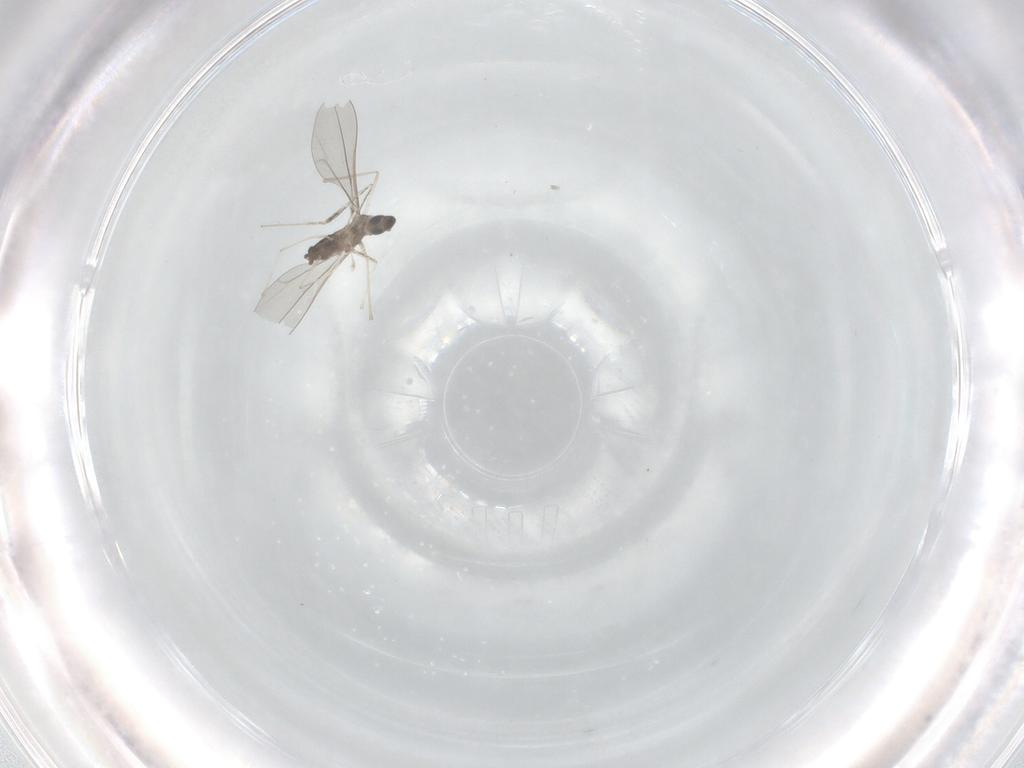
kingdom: Animalia
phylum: Arthropoda
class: Insecta
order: Diptera
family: Cecidomyiidae
